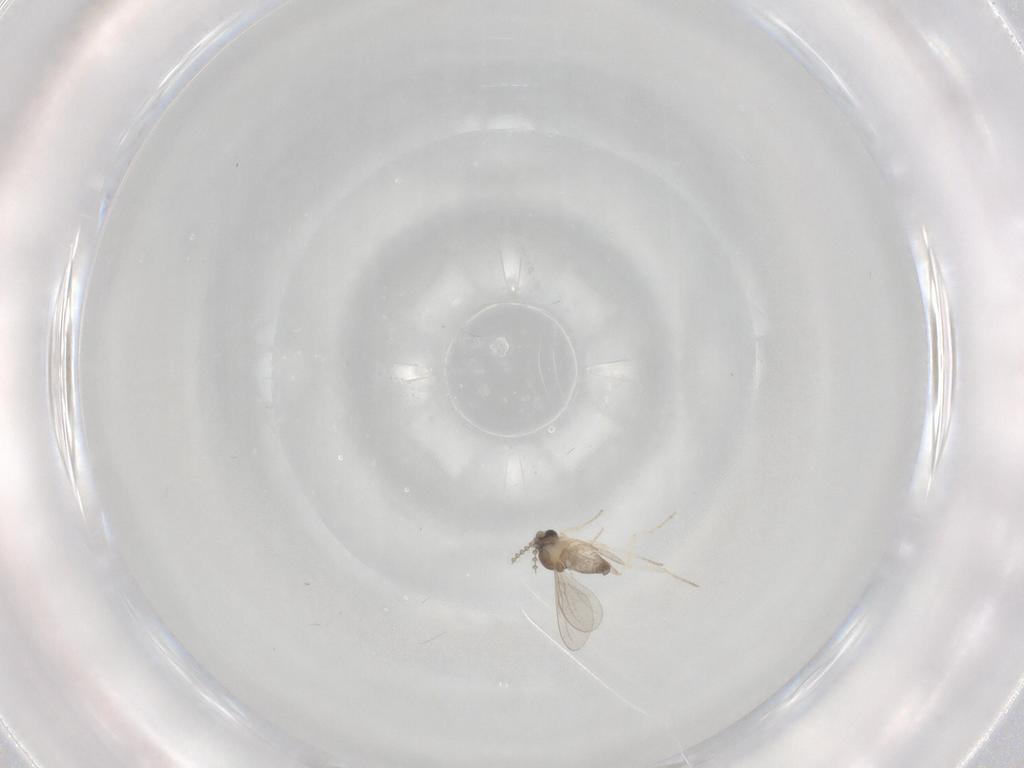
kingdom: Animalia
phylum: Arthropoda
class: Insecta
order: Diptera
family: Cecidomyiidae
